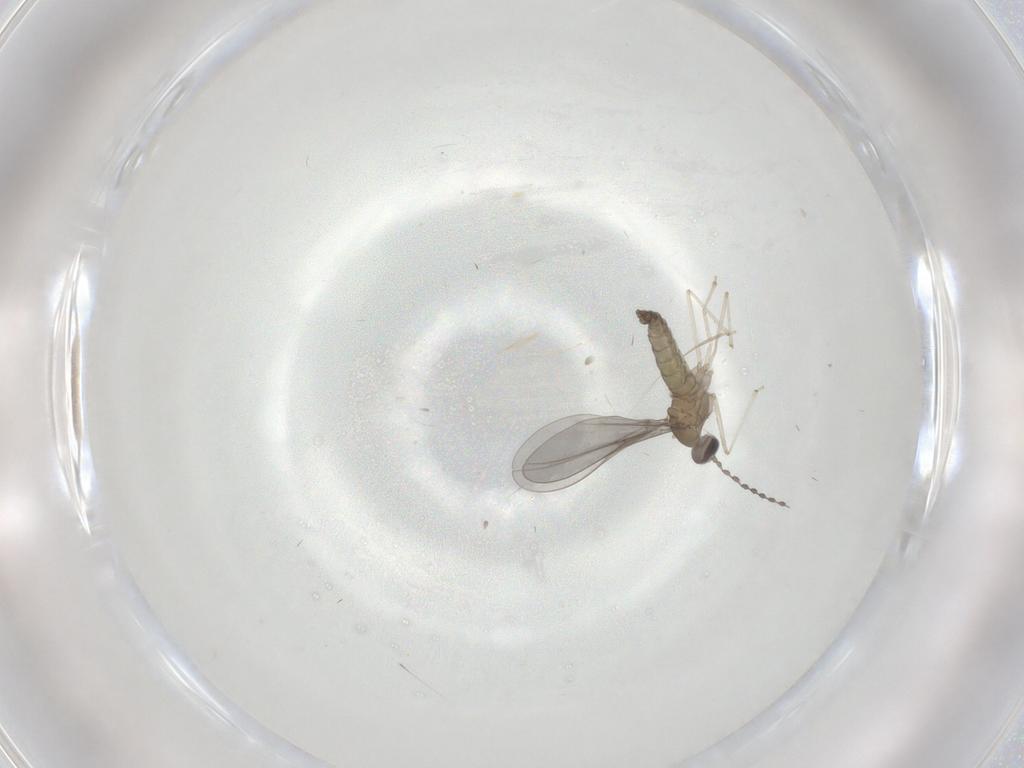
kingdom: Animalia
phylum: Arthropoda
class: Insecta
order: Diptera
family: Cecidomyiidae
